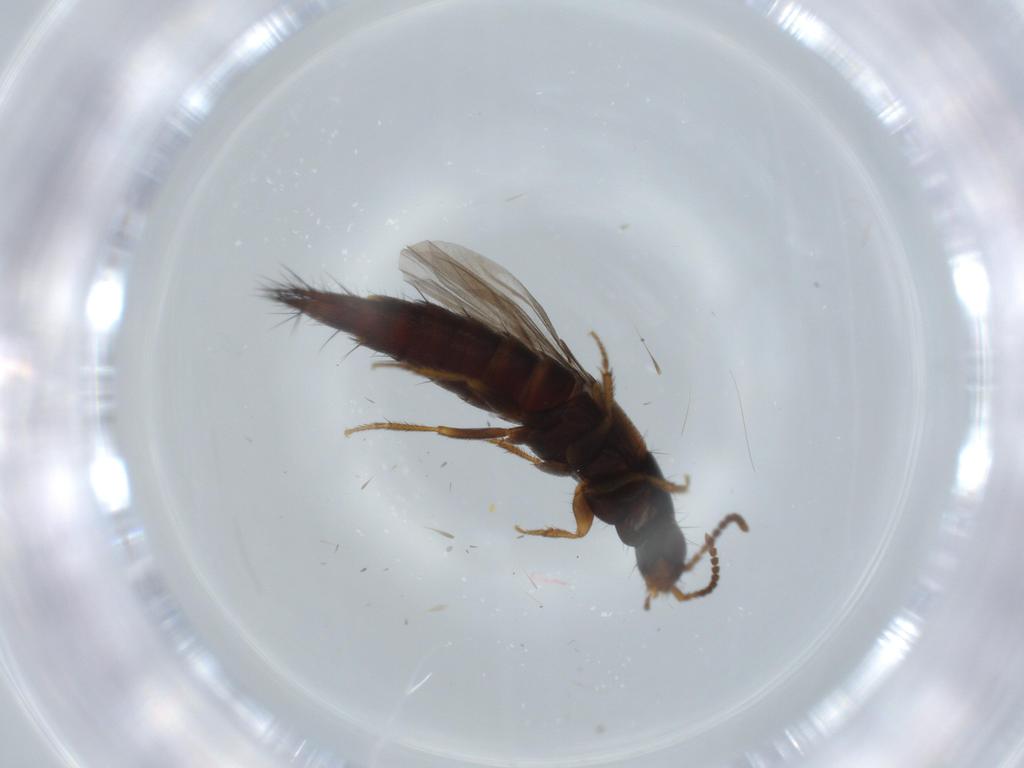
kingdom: Animalia
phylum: Arthropoda
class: Insecta
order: Coleoptera
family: Staphylinidae
